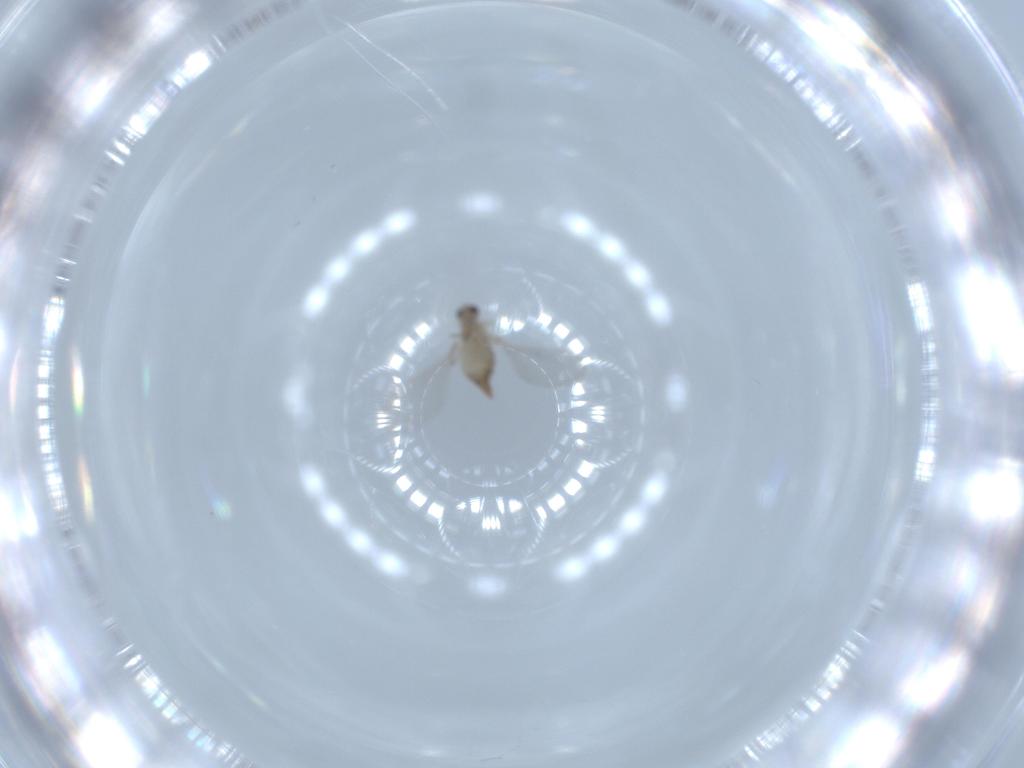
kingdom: Animalia
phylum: Arthropoda
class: Insecta
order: Diptera
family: Cecidomyiidae
